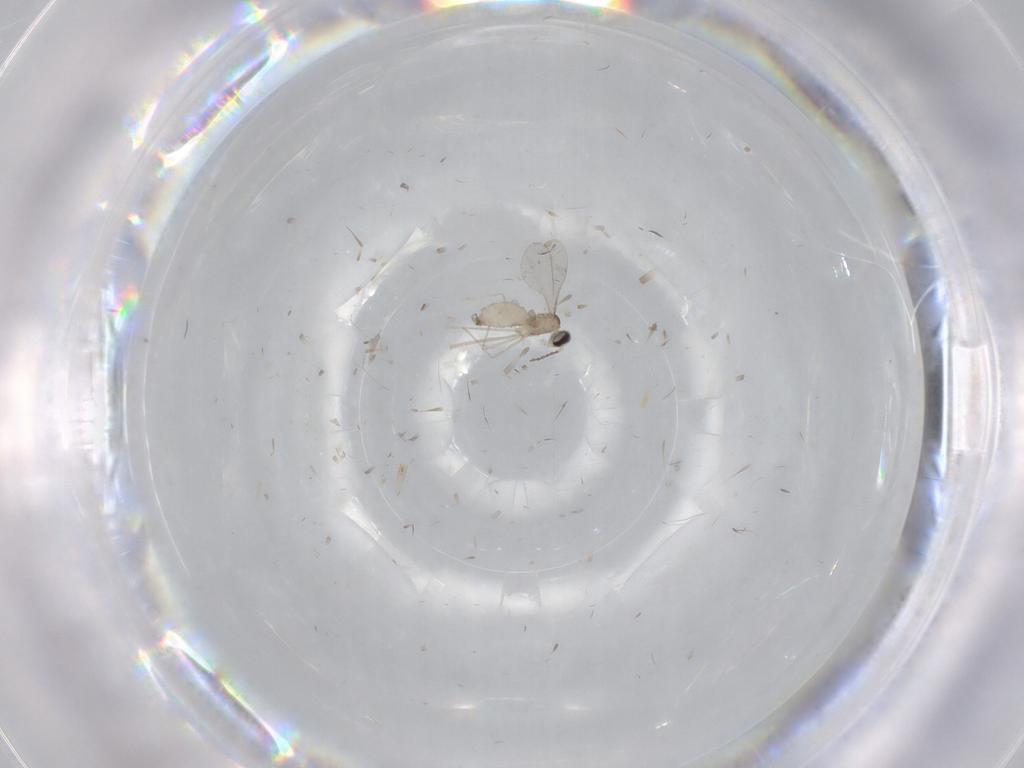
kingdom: Animalia
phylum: Arthropoda
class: Insecta
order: Diptera
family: Cecidomyiidae
